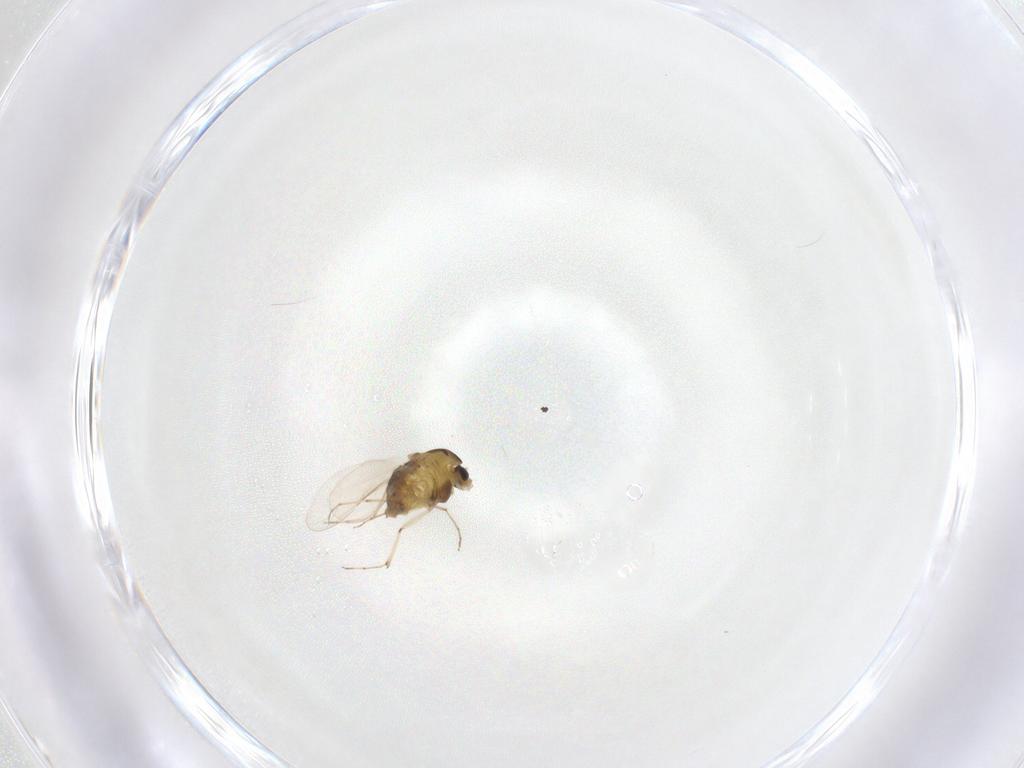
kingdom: Animalia
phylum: Arthropoda
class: Insecta
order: Diptera
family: Chironomidae
